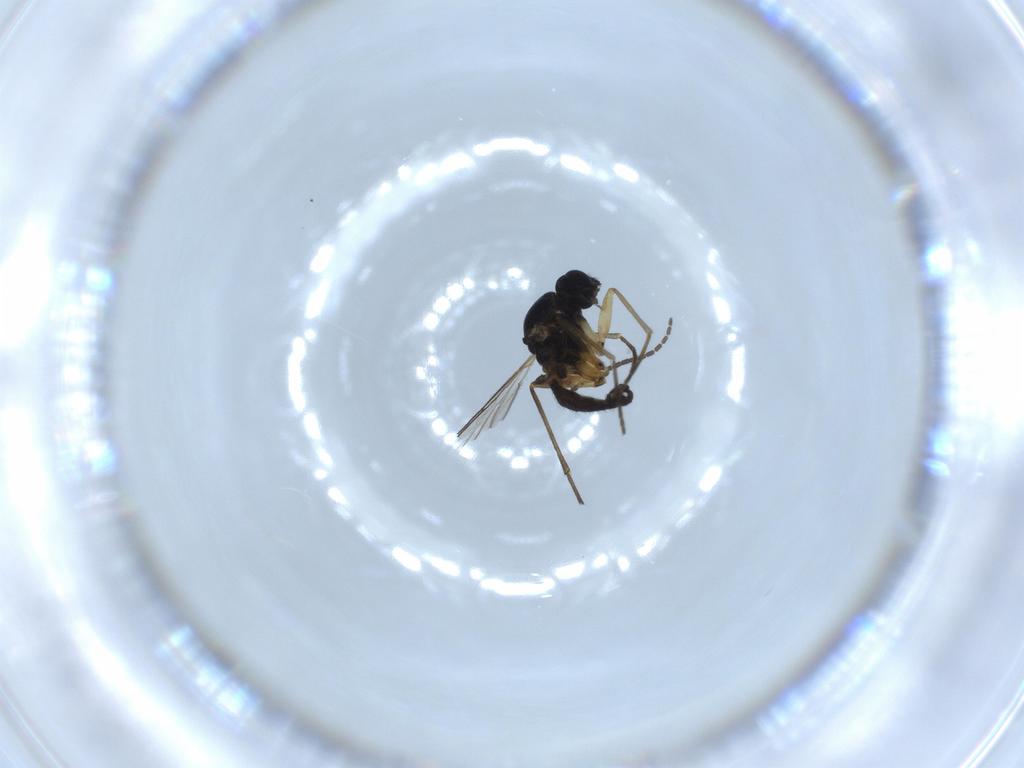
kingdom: Animalia
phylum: Arthropoda
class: Insecta
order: Diptera
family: Sciaridae
